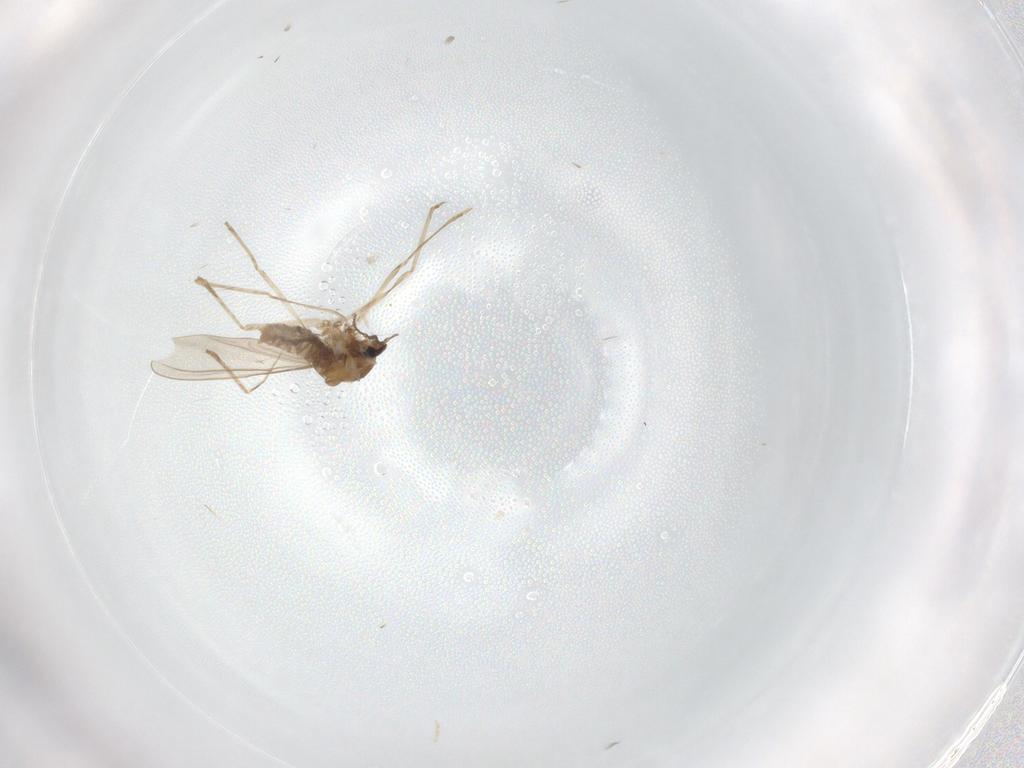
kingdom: Animalia
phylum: Arthropoda
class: Insecta
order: Diptera
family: Cecidomyiidae
